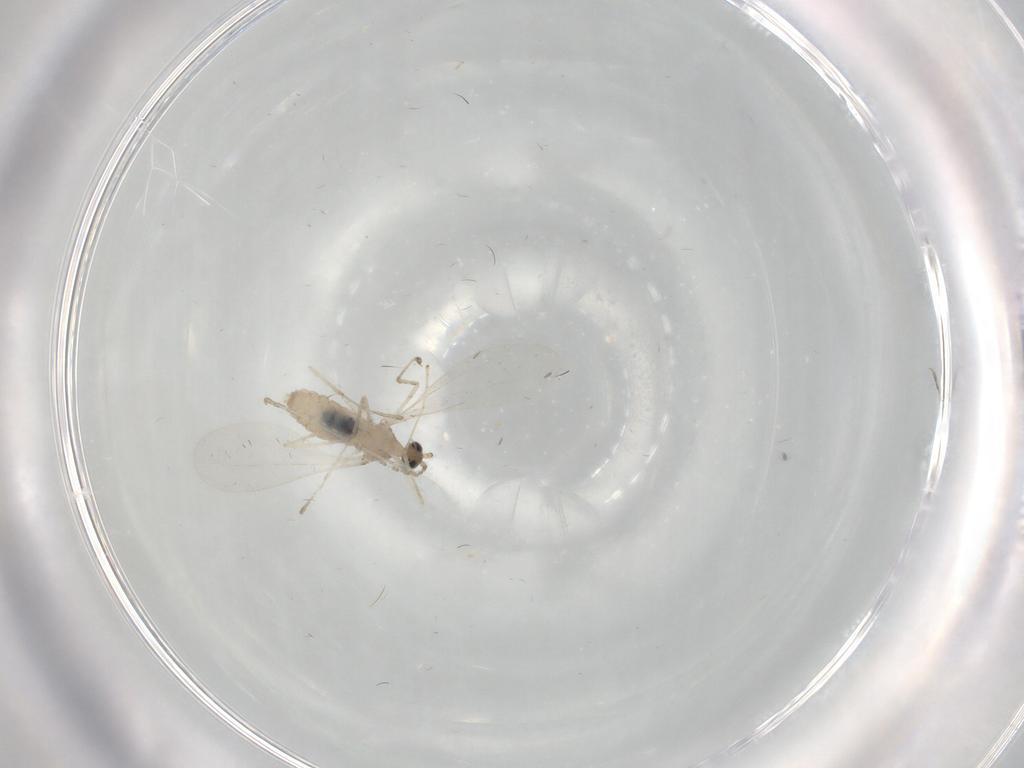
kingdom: Animalia
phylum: Arthropoda
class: Insecta
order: Diptera
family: Cecidomyiidae
